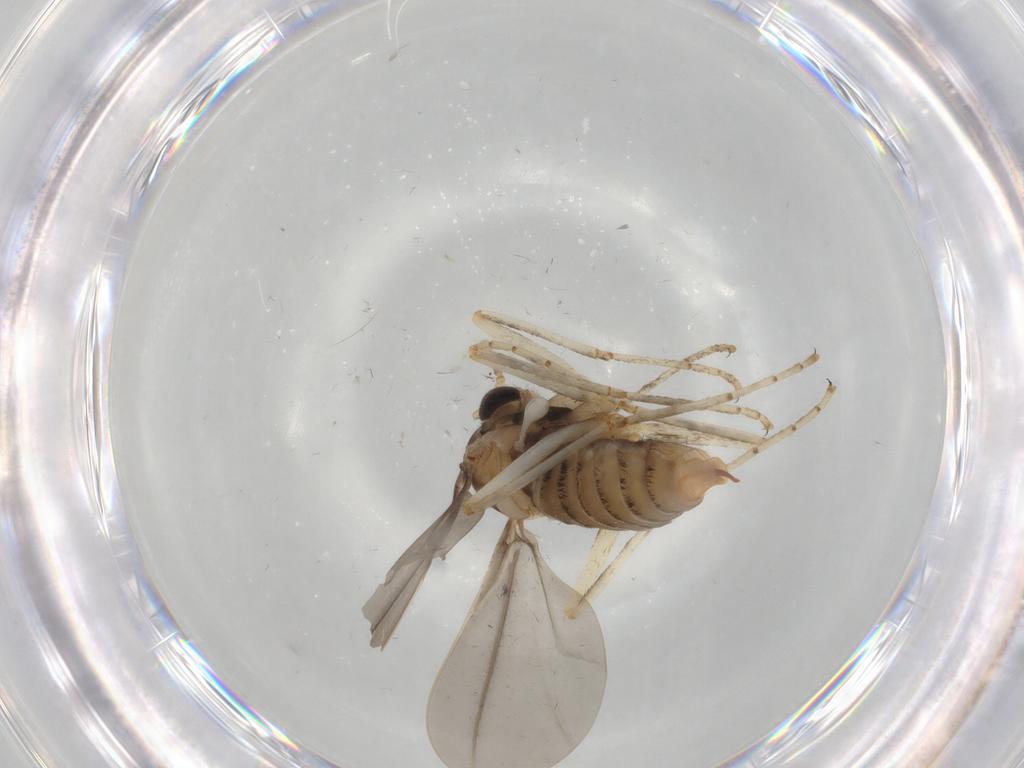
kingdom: Animalia
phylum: Arthropoda
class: Insecta
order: Diptera
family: Cecidomyiidae
